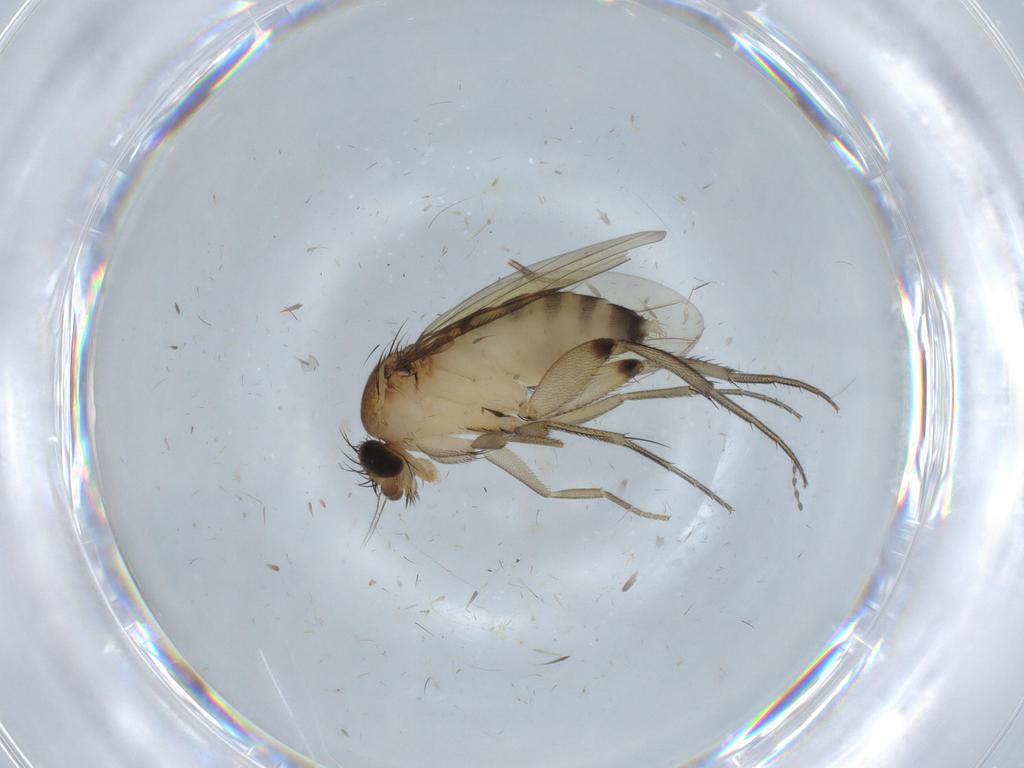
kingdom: Animalia
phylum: Arthropoda
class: Insecta
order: Diptera
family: Phoridae
